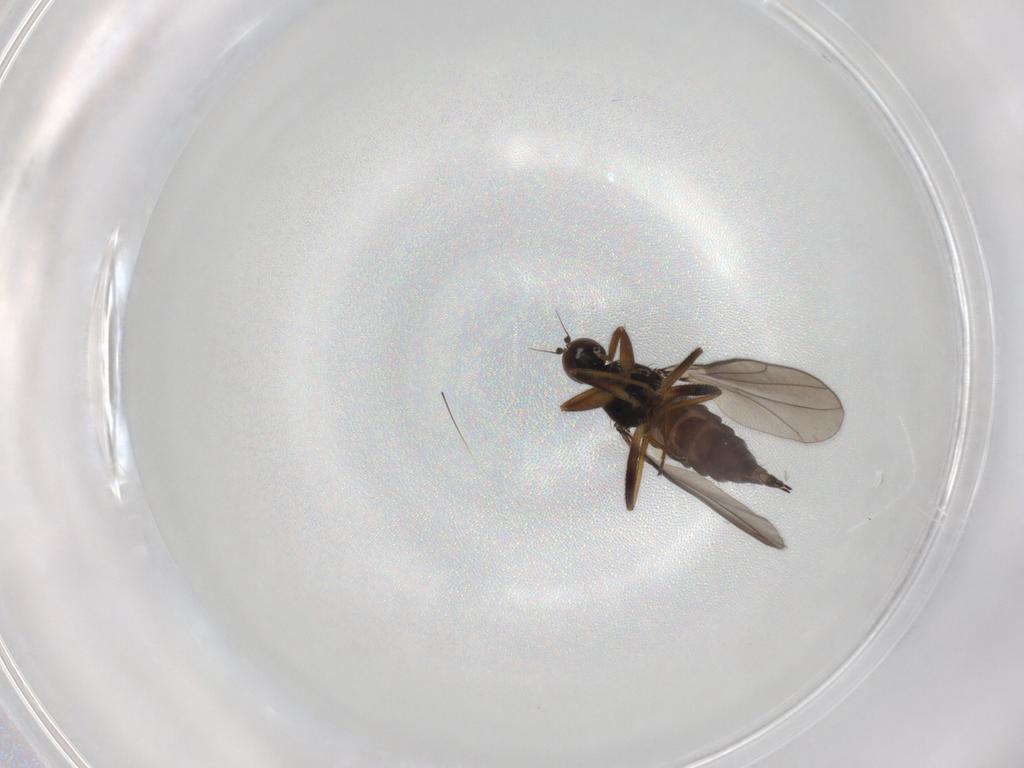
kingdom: Animalia
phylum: Arthropoda
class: Insecta
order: Diptera
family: Hybotidae
